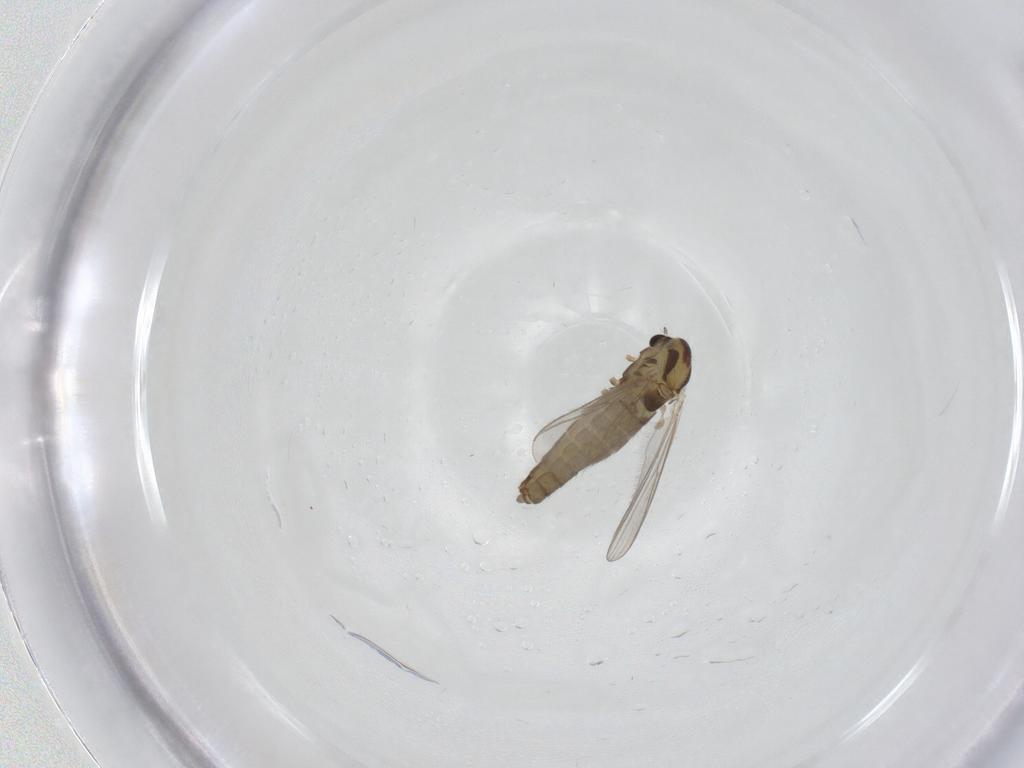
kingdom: Animalia
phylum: Arthropoda
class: Insecta
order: Diptera
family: Chironomidae
